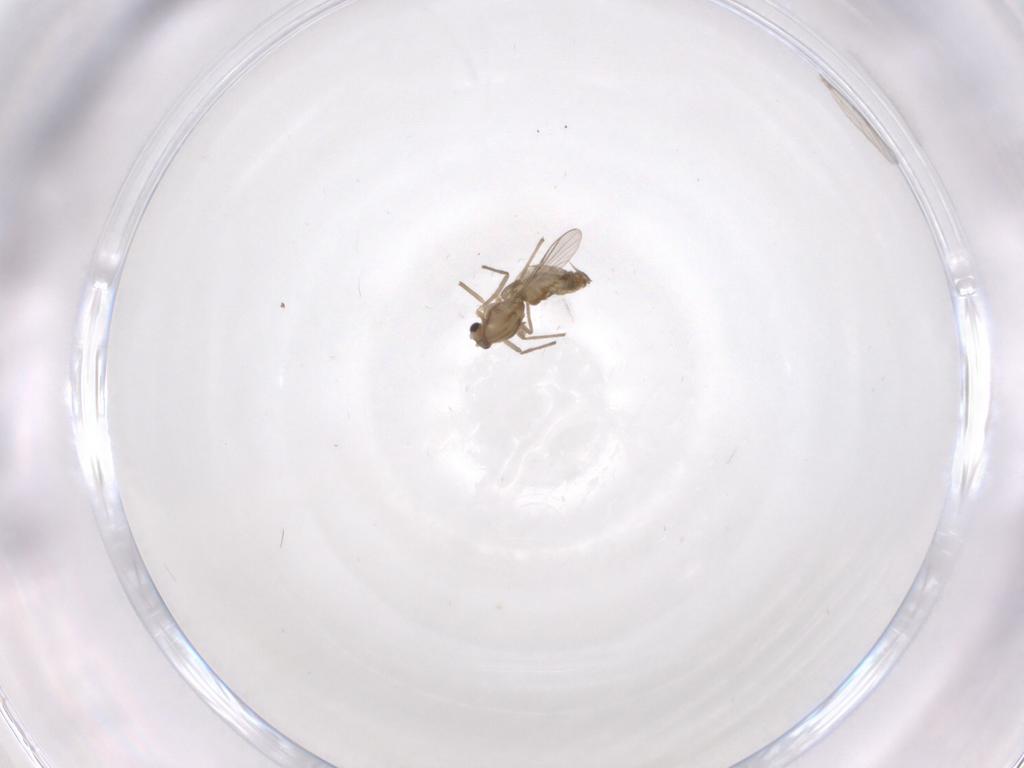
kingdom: Animalia
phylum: Arthropoda
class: Insecta
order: Diptera
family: Chironomidae
